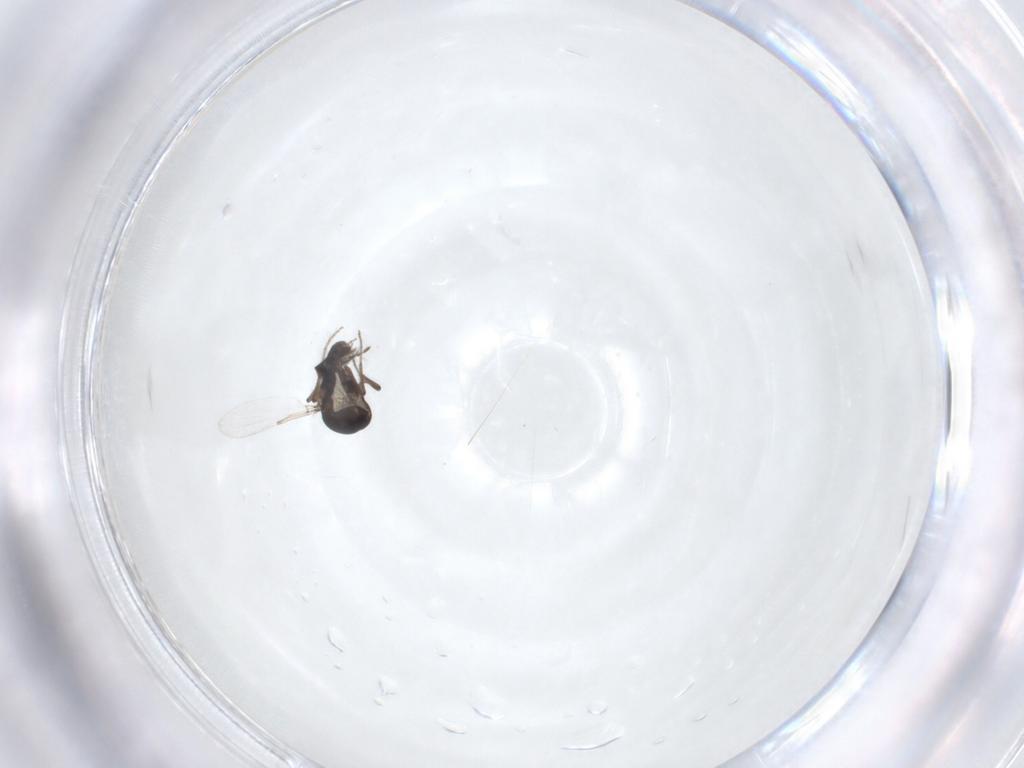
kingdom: Animalia
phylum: Arthropoda
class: Insecta
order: Diptera
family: Ceratopogonidae
